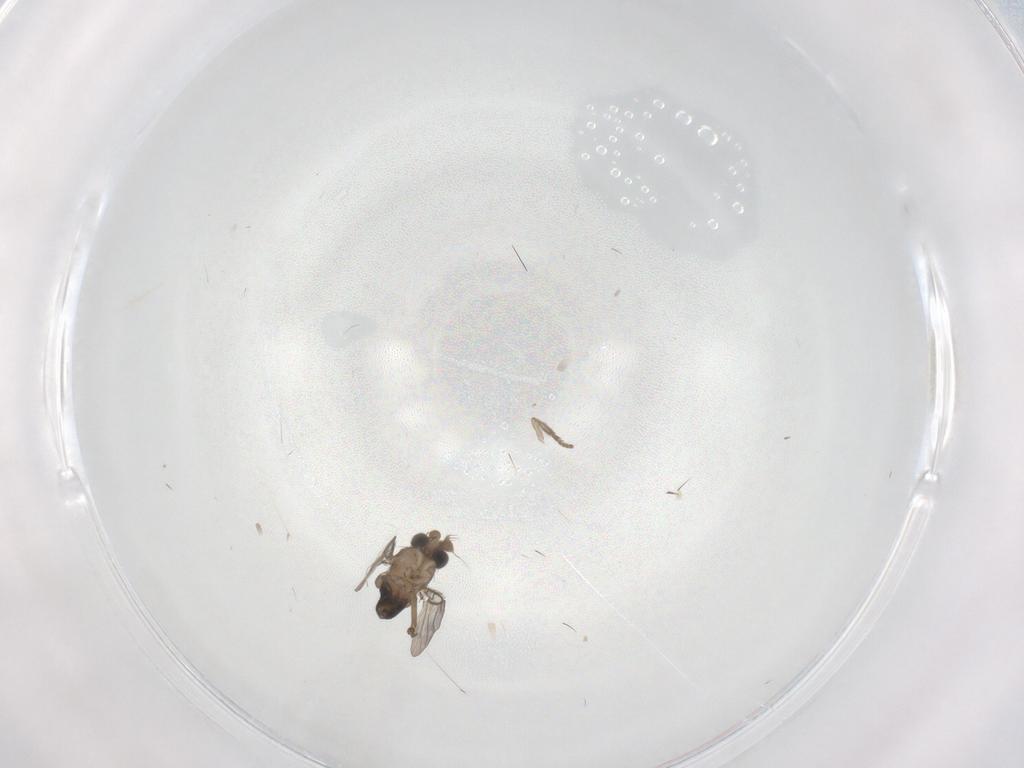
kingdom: Animalia
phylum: Arthropoda
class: Insecta
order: Diptera
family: Psychodidae
